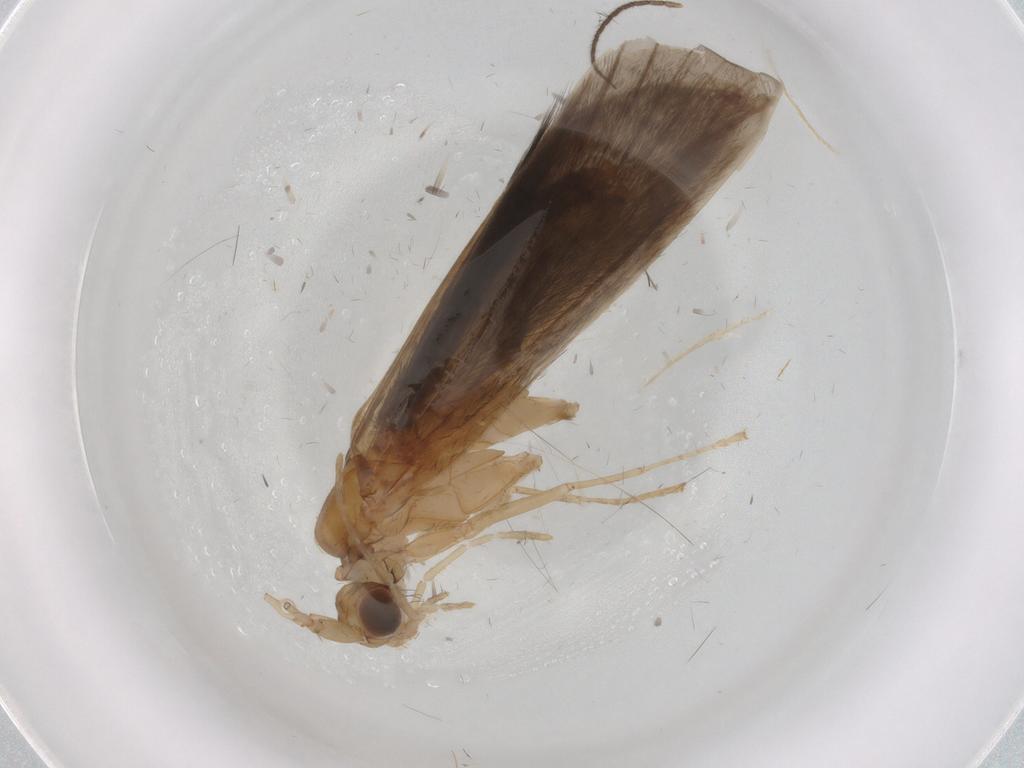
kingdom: Animalia
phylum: Arthropoda
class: Insecta
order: Trichoptera
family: Leptoceridae
